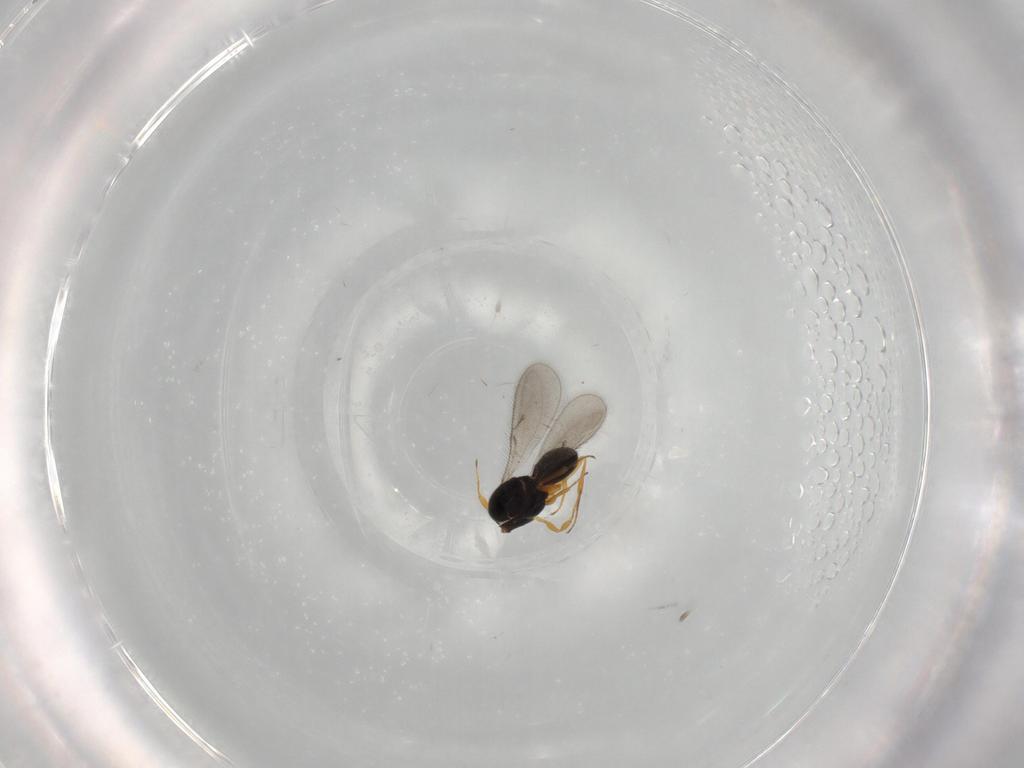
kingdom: Animalia
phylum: Arthropoda
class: Insecta
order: Hymenoptera
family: Scelionidae
